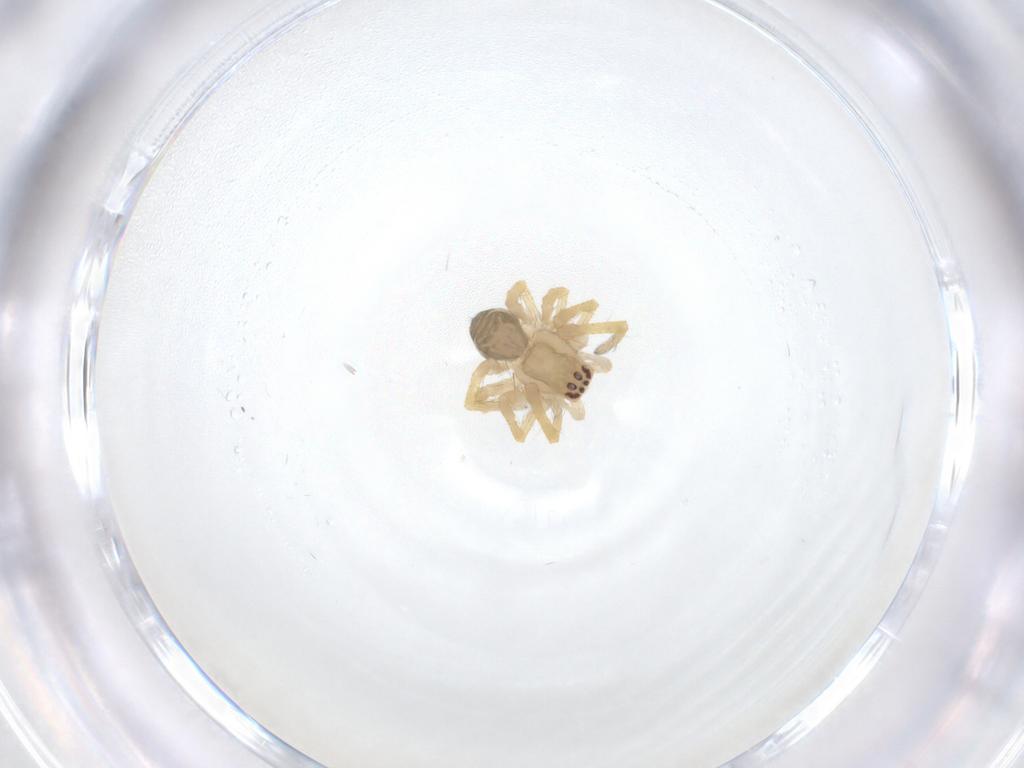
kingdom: Animalia
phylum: Arthropoda
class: Arachnida
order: Araneae
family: Desidae
